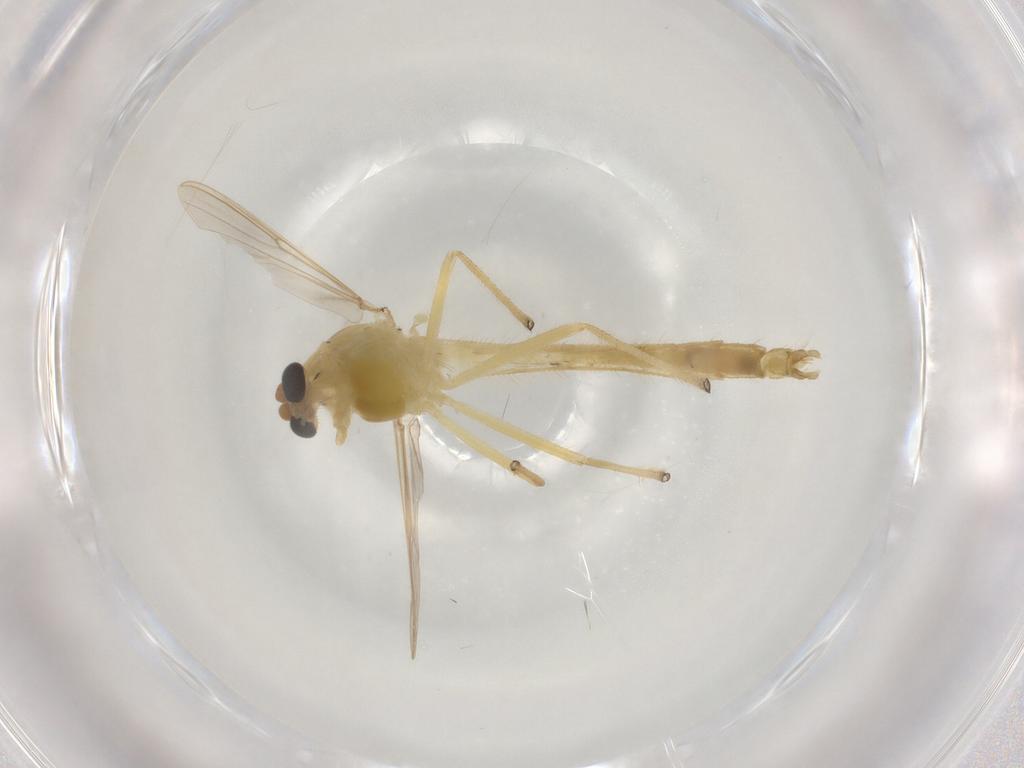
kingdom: Animalia
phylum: Arthropoda
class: Insecta
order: Diptera
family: Chironomidae
